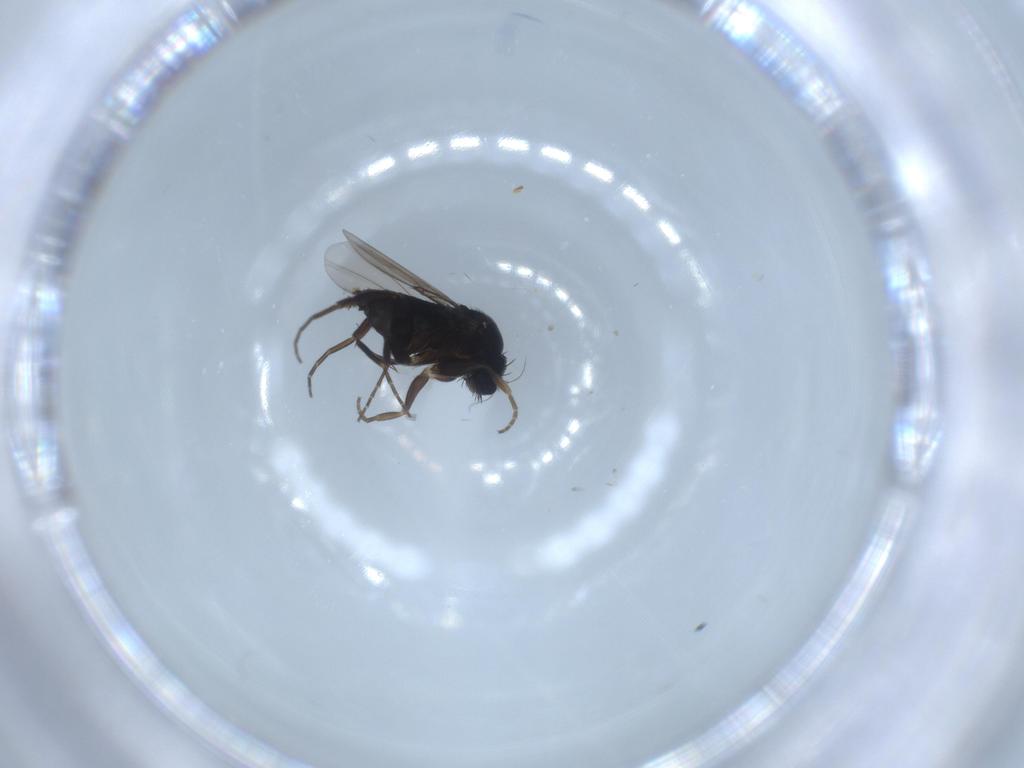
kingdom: Animalia
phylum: Arthropoda
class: Insecta
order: Diptera
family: Phoridae
